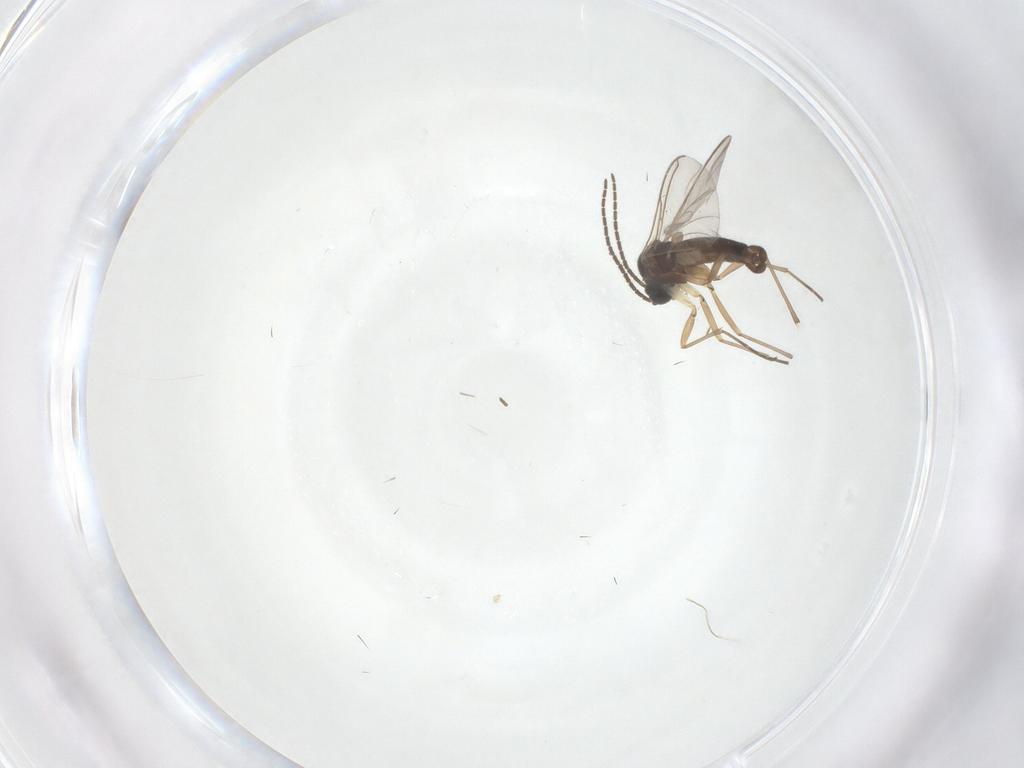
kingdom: Animalia
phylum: Arthropoda
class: Insecta
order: Diptera
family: Sciaridae
